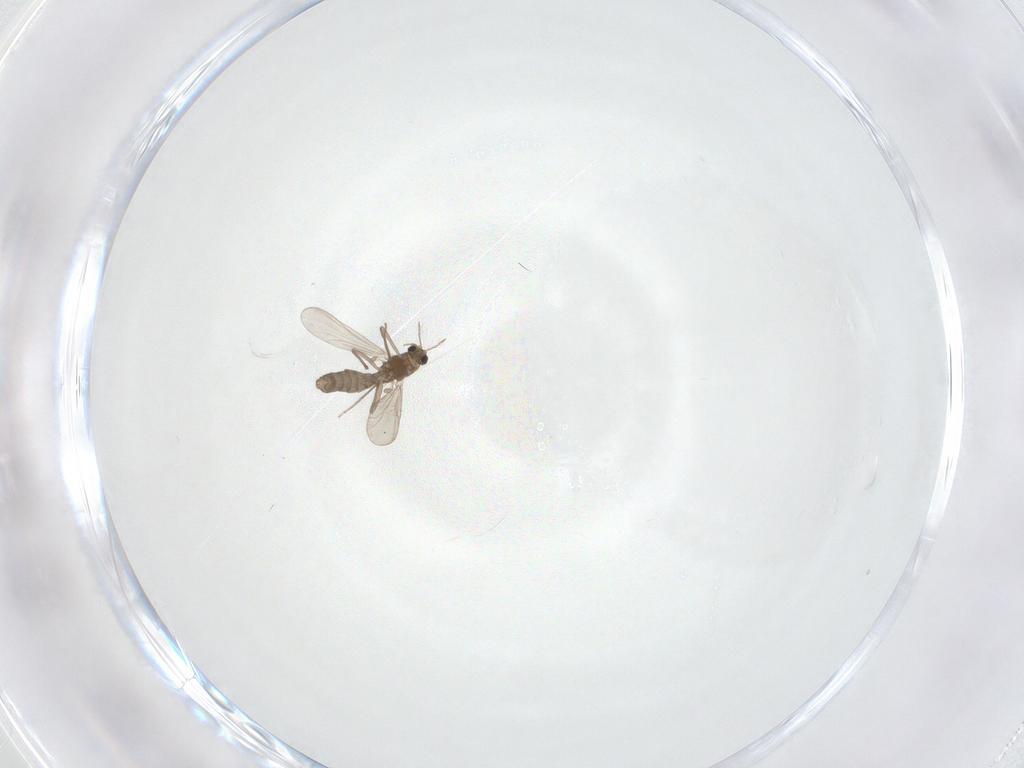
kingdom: Animalia
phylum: Arthropoda
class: Insecta
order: Diptera
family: Chironomidae
